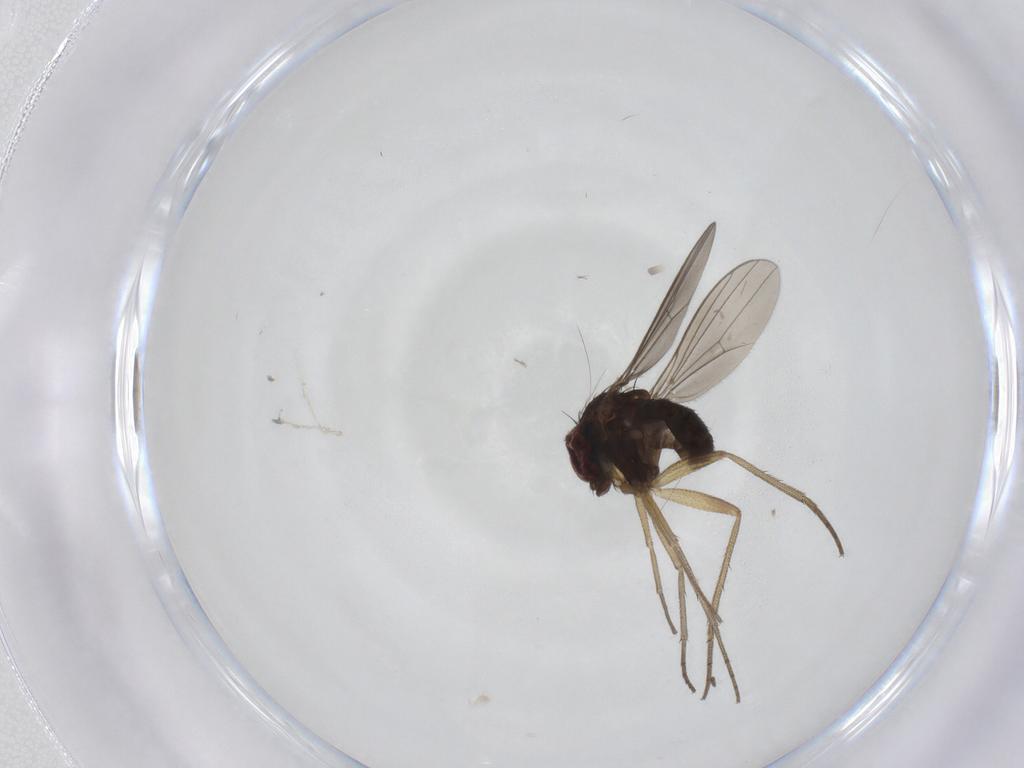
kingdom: Animalia
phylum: Arthropoda
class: Insecta
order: Diptera
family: Dolichopodidae
